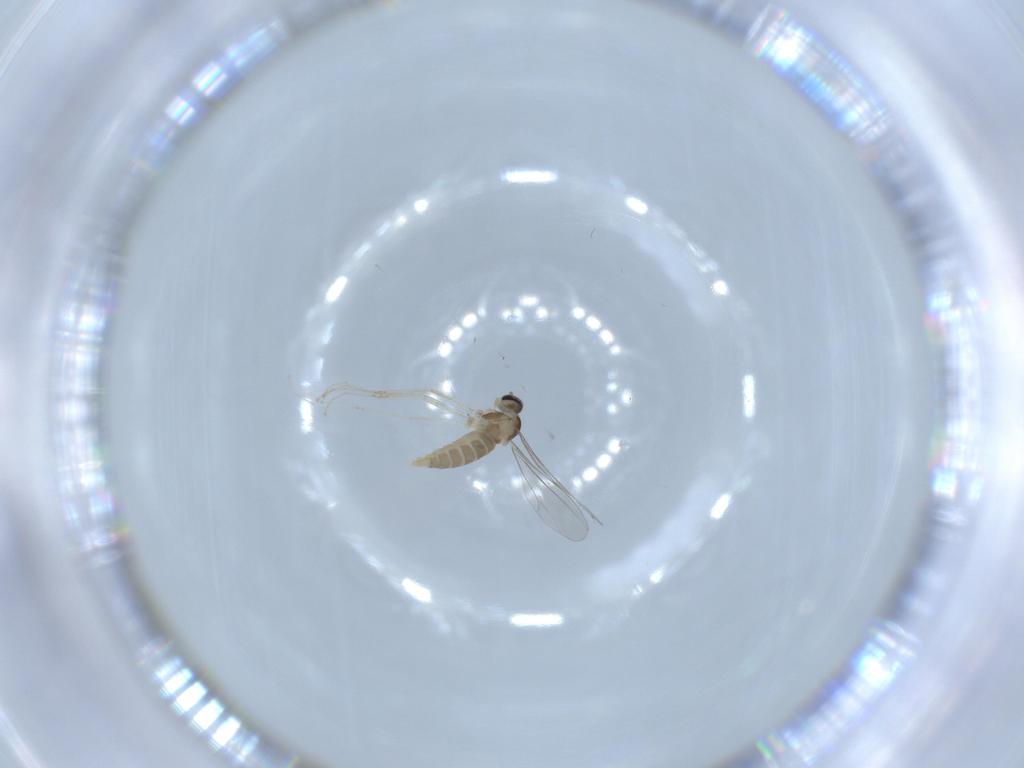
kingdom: Animalia
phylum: Arthropoda
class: Insecta
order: Diptera
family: Cecidomyiidae
